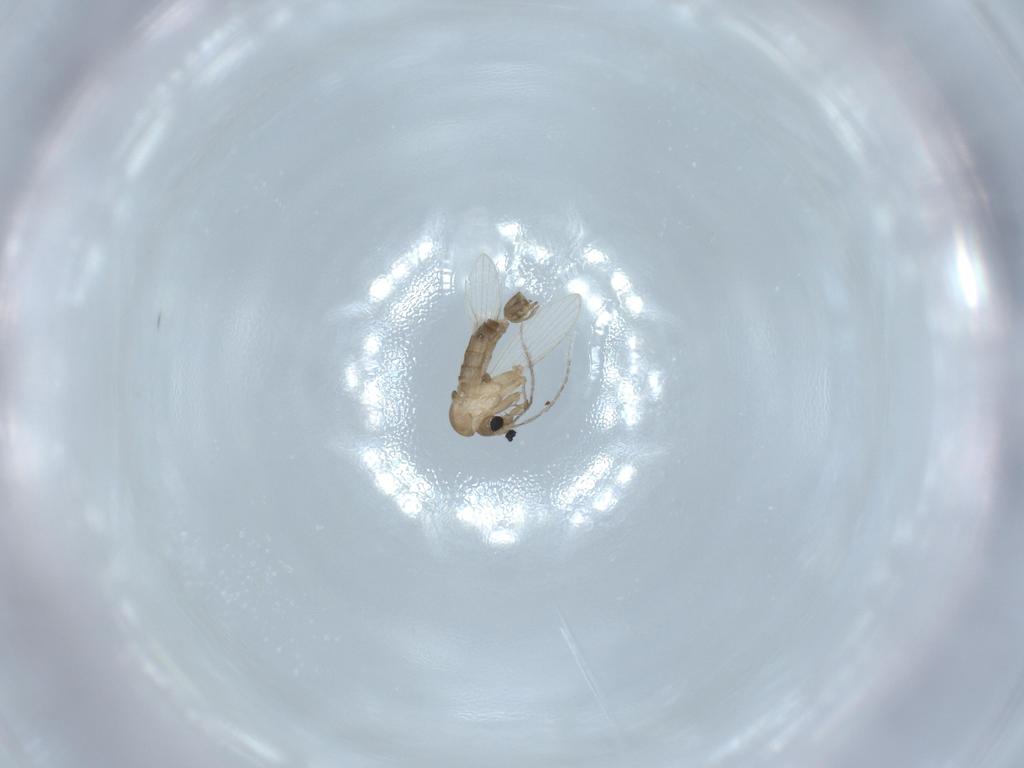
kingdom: Animalia
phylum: Arthropoda
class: Insecta
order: Diptera
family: Psychodidae
